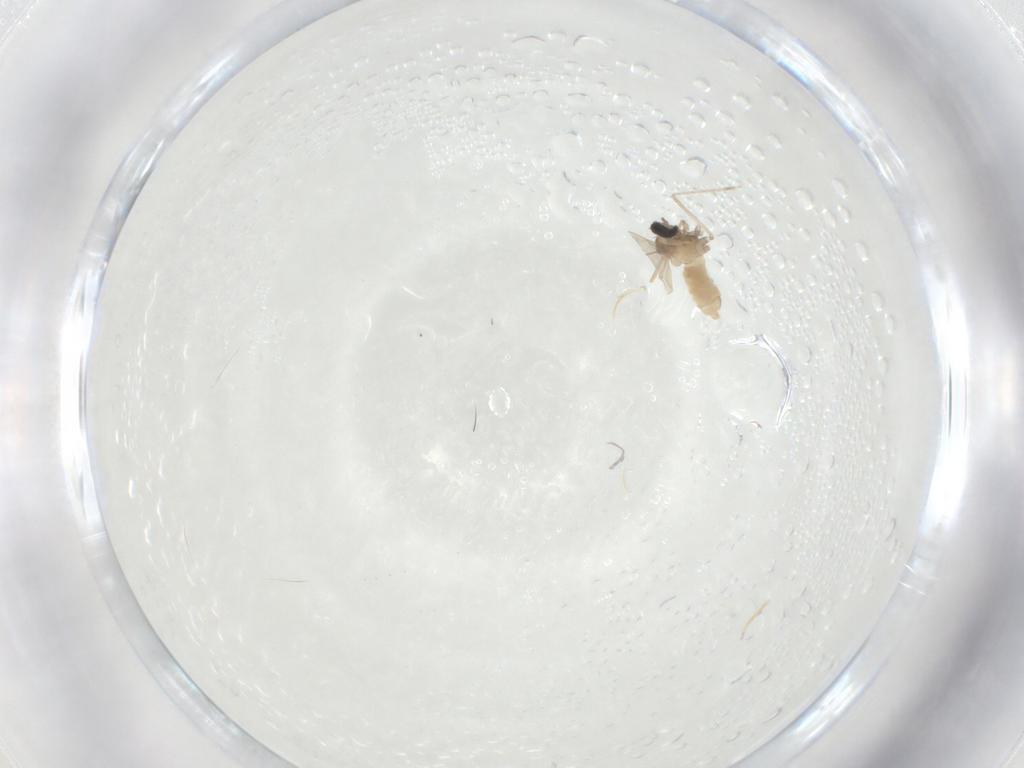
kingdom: Animalia
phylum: Arthropoda
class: Insecta
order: Diptera
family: Cecidomyiidae
